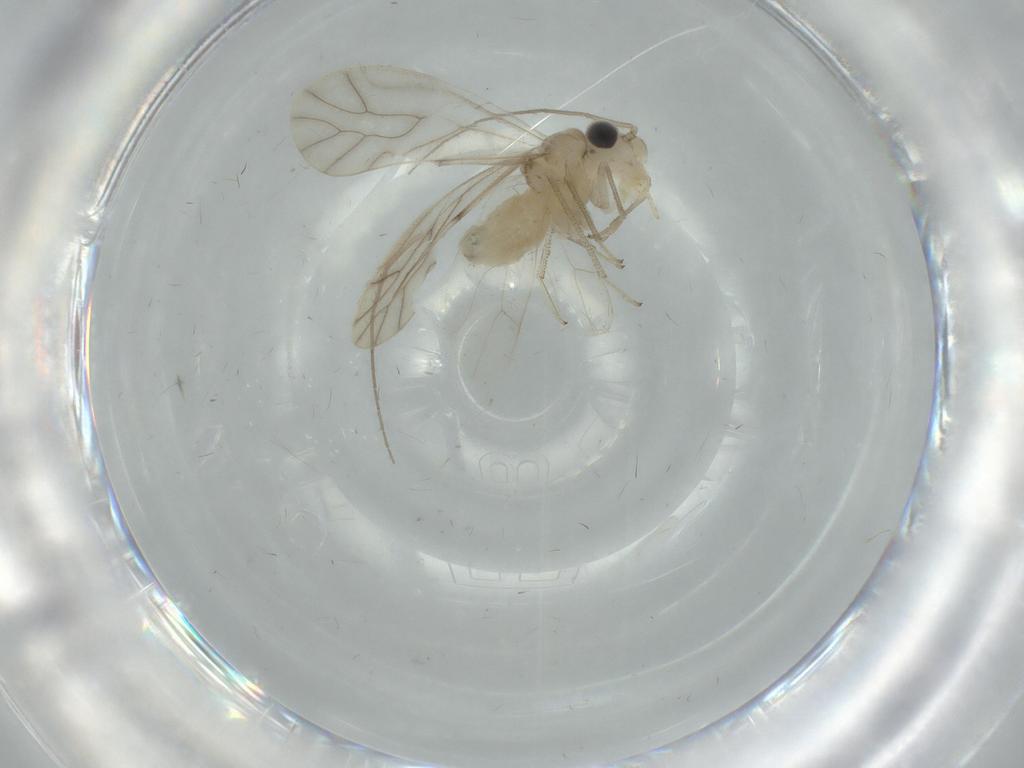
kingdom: Animalia
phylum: Arthropoda
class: Insecta
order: Psocodea
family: Caeciliusidae
